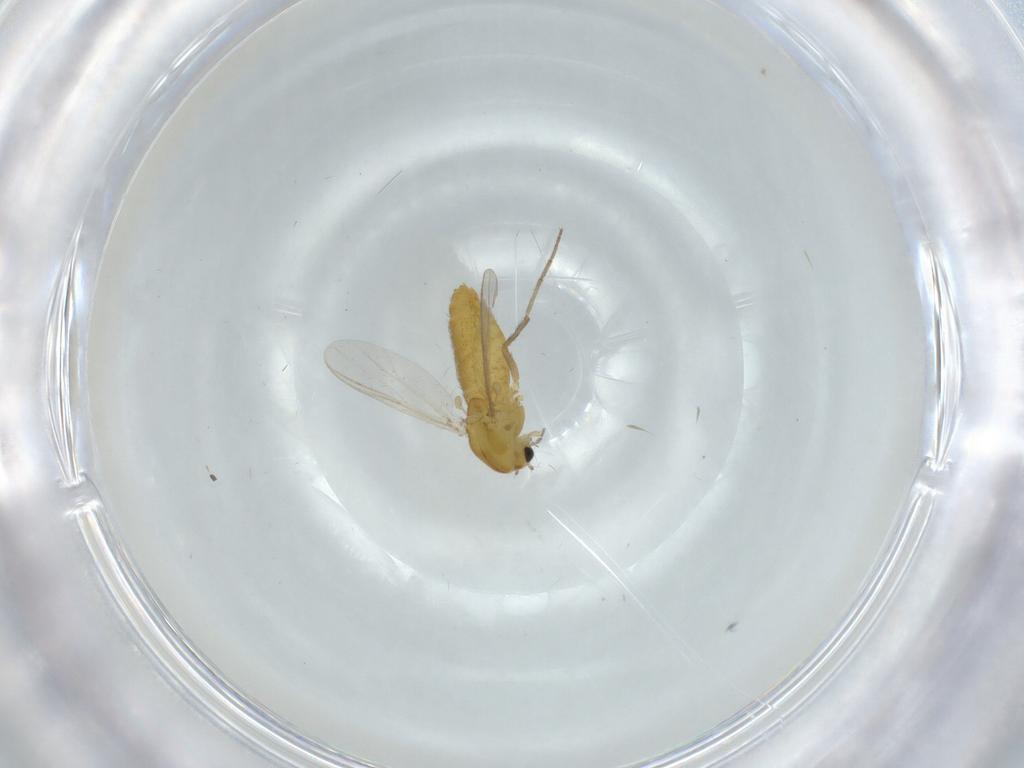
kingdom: Animalia
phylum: Arthropoda
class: Insecta
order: Diptera
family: Chironomidae
